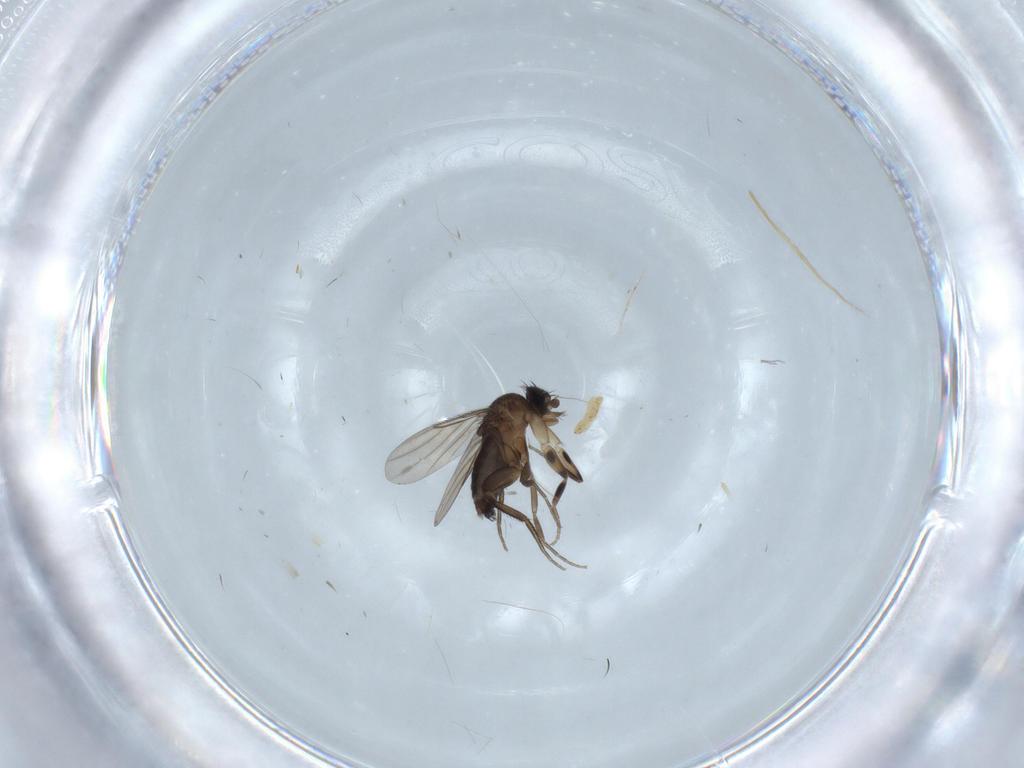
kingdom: Animalia
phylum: Arthropoda
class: Insecta
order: Diptera
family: Phoridae
